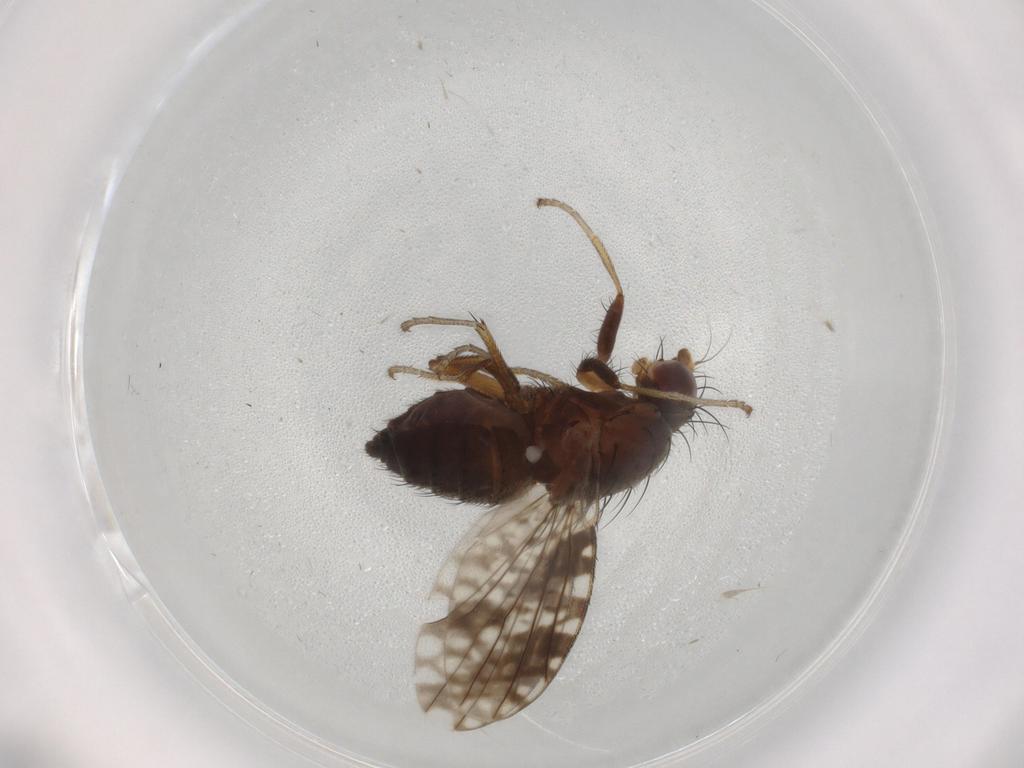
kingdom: Animalia
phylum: Arthropoda
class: Insecta
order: Diptera
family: Tephritidae
